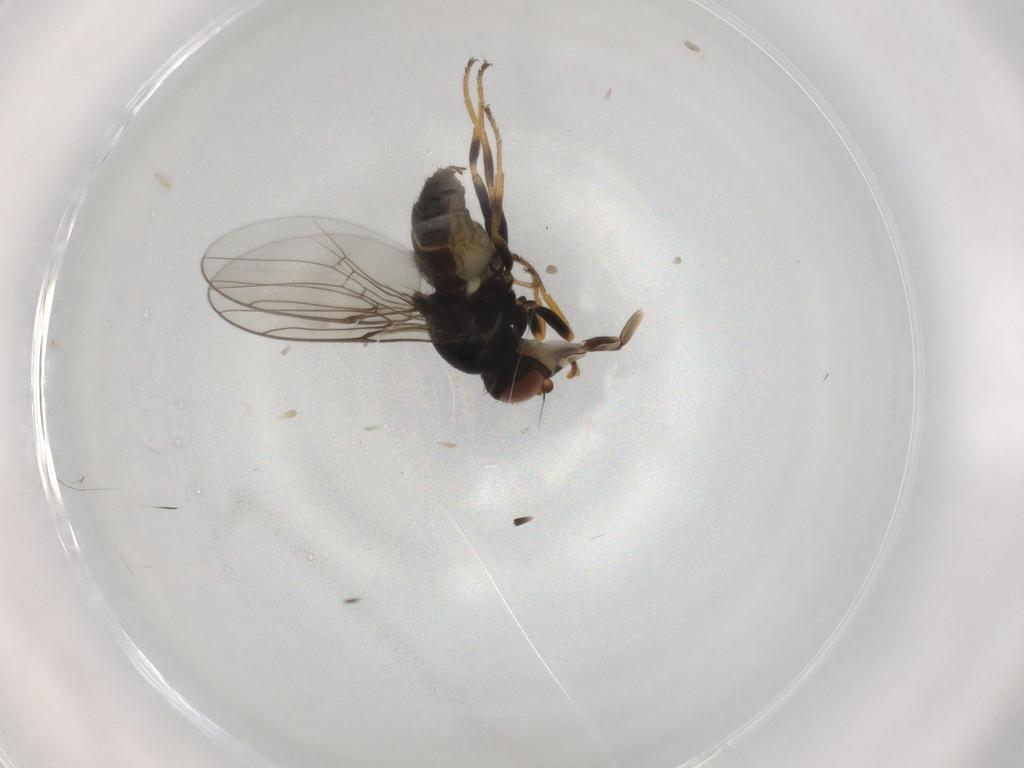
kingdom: Animalia
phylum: Arthropoda
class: Insecta
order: Diptera
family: Chloropidae
